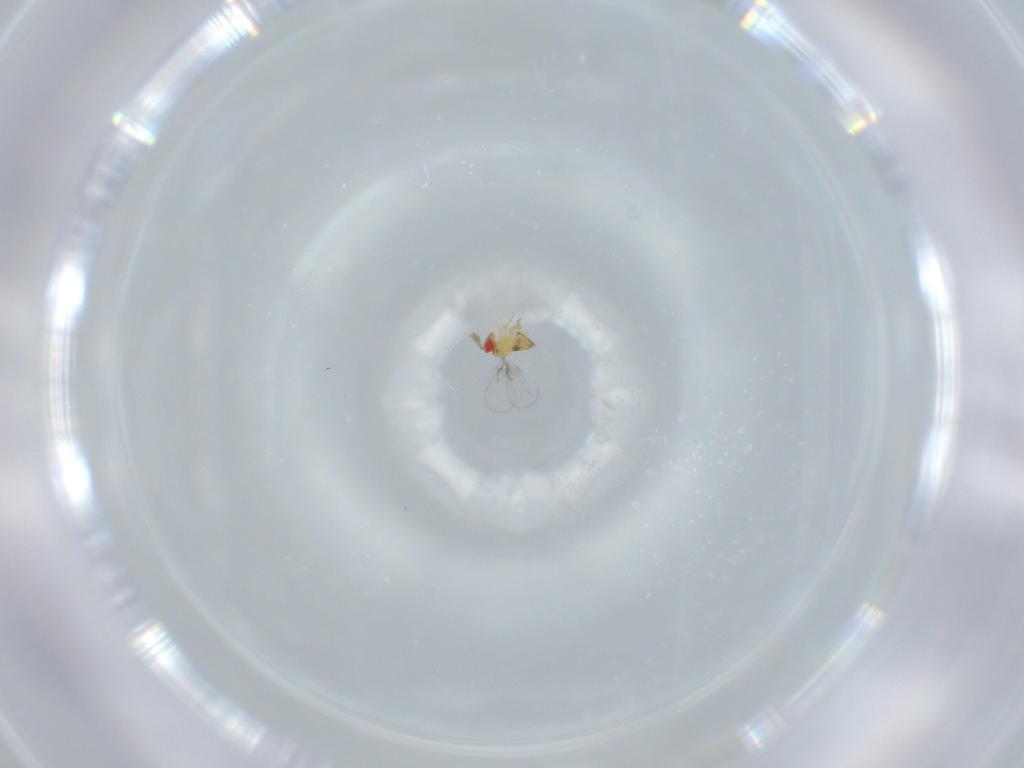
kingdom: Animalia
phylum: Arthropoda
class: Insecta
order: Hymenoptera
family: Trichogrammatidae
